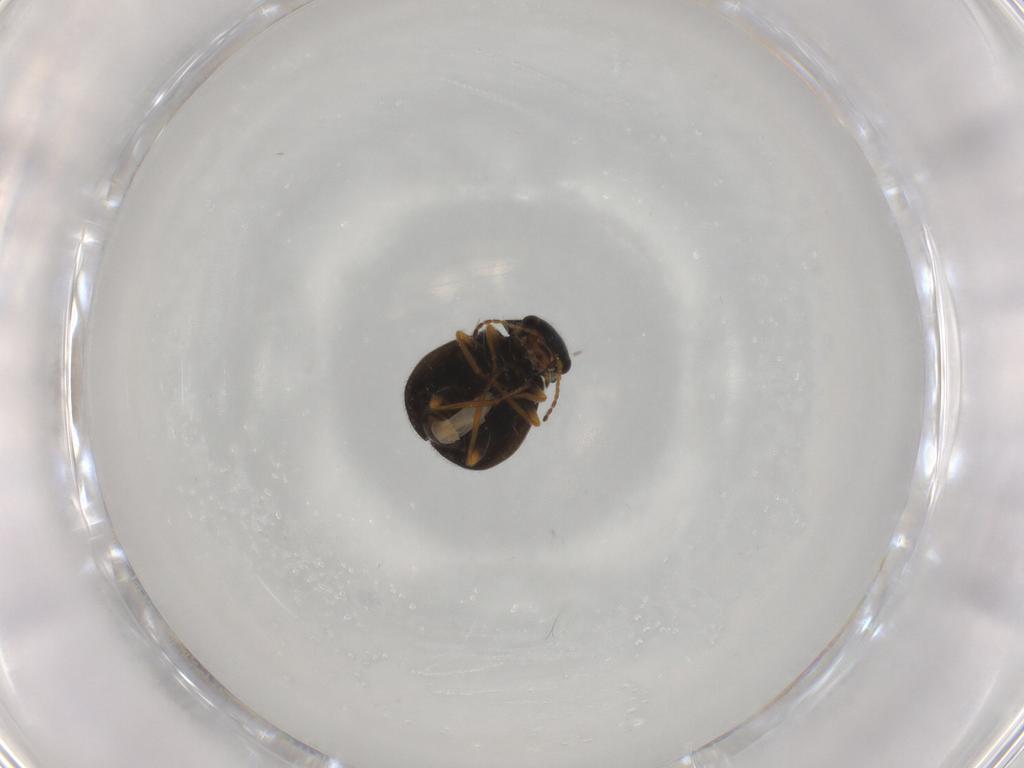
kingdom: Animalia
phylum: Arthropoda
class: Insecta
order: Coleoptera
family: Melyridae
